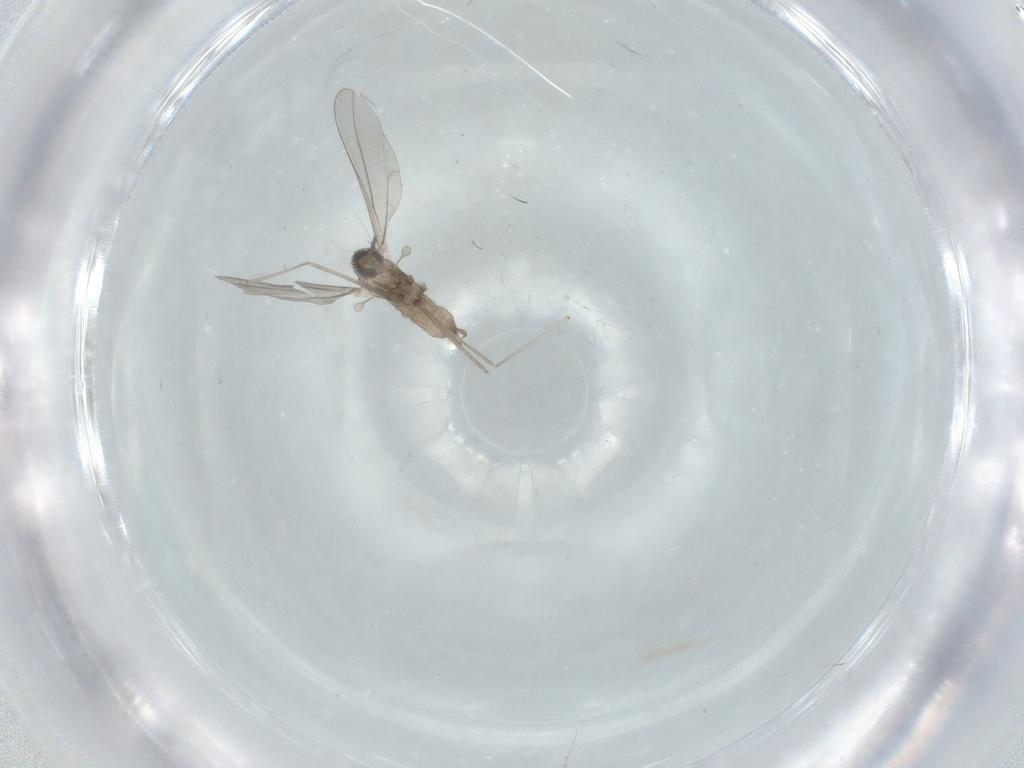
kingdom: Animalia
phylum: Arthropoda
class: Insecta
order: Diptera
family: Cecidomyiidae
